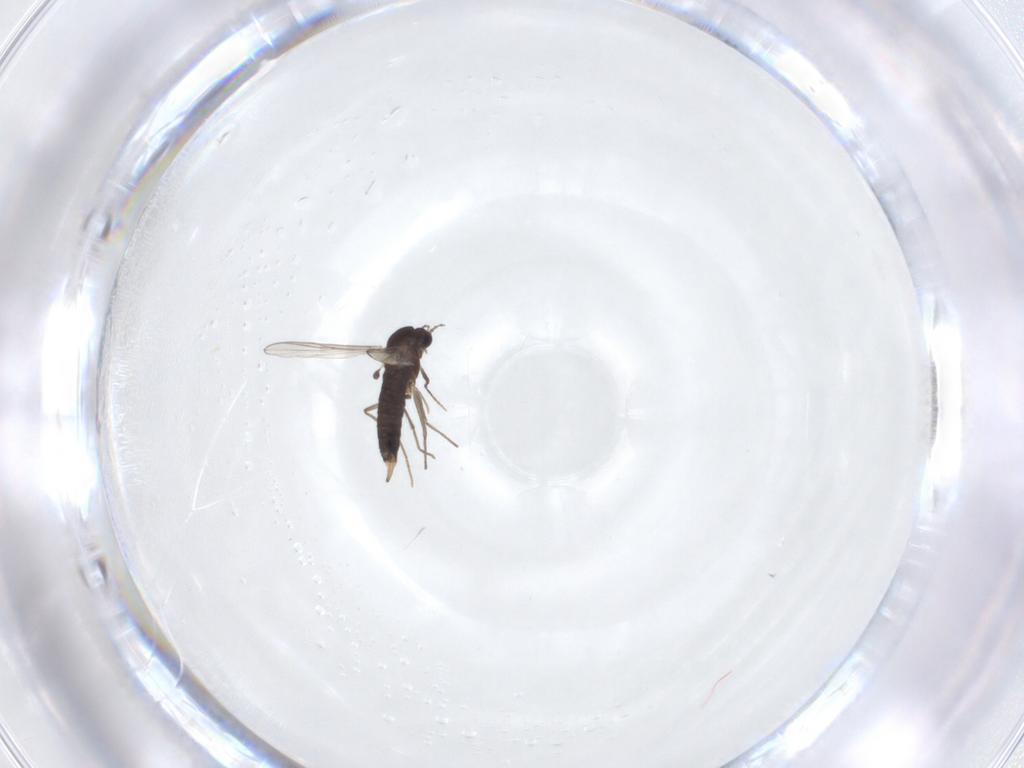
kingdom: Animalia
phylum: Arthropoda
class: Insecta
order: Diptera
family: Chironomidae
